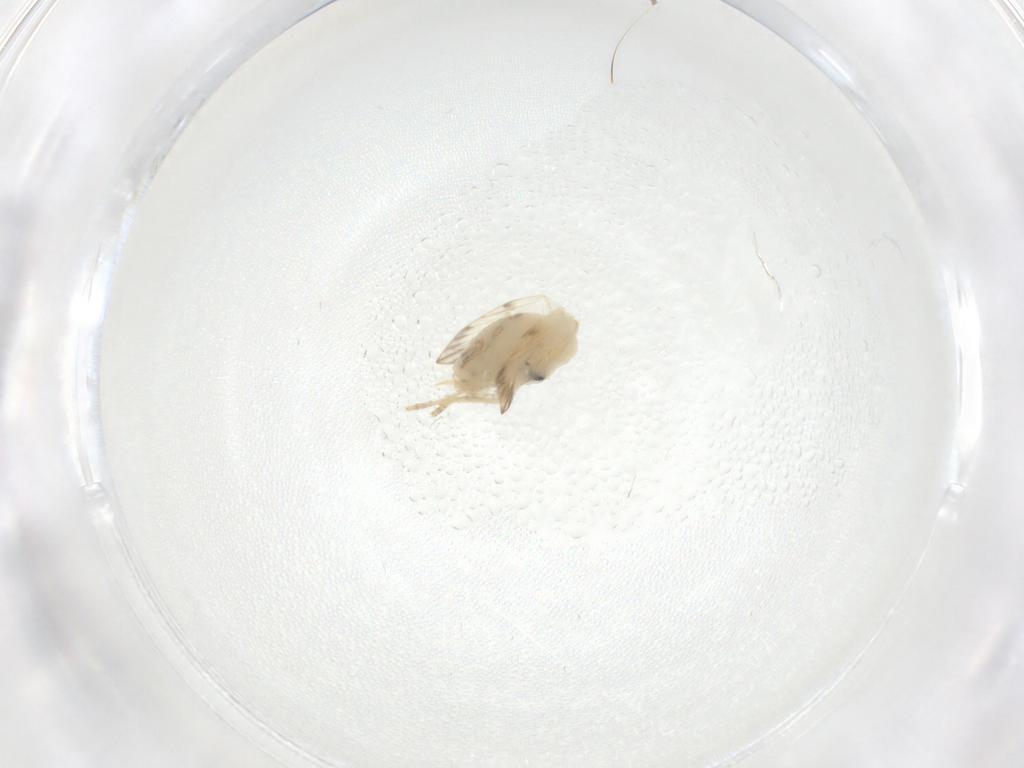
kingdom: Animalia
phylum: Arthropoda
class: Insecta
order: Diptera
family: Psychodidae
